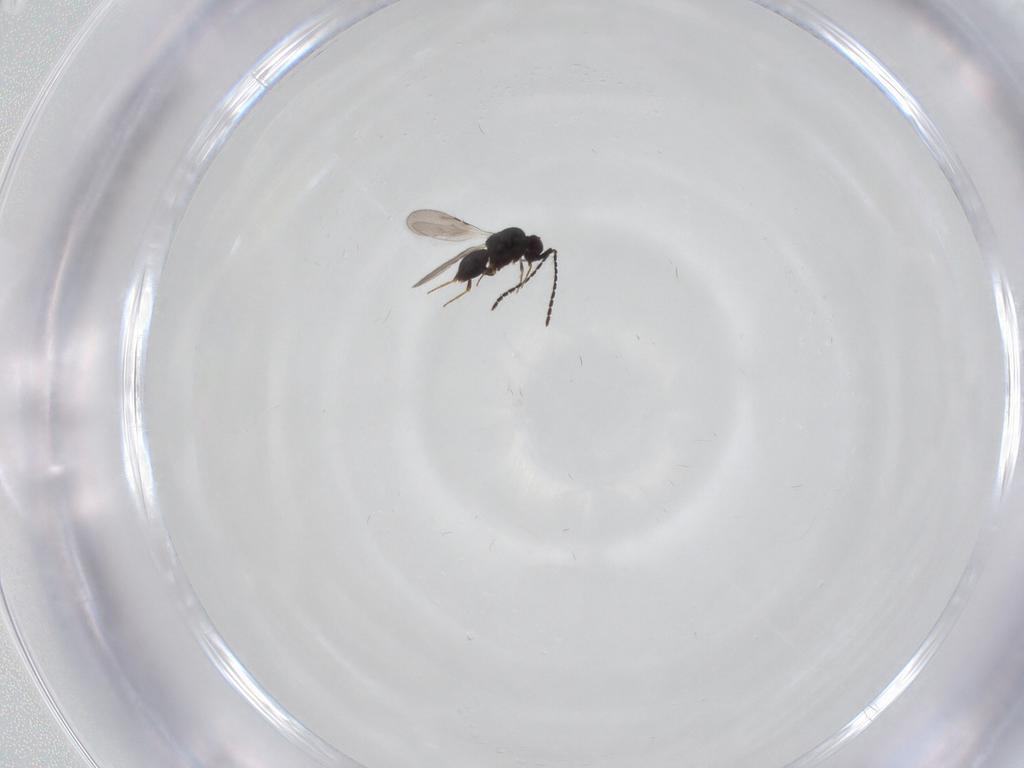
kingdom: Animalia
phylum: Arthropoda
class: Insecta
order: Hymenoptera
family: Ceraphronidae
